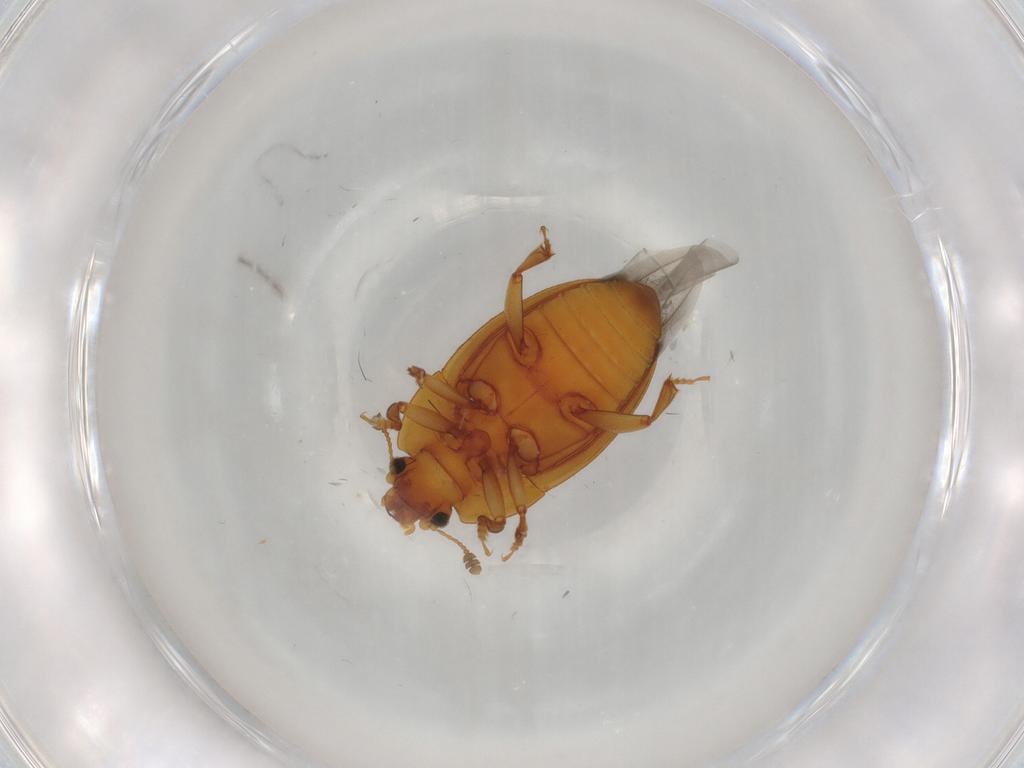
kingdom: Animalia
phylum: Arthropoda
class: Insecta
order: Coleoptera
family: Nitidulidae
